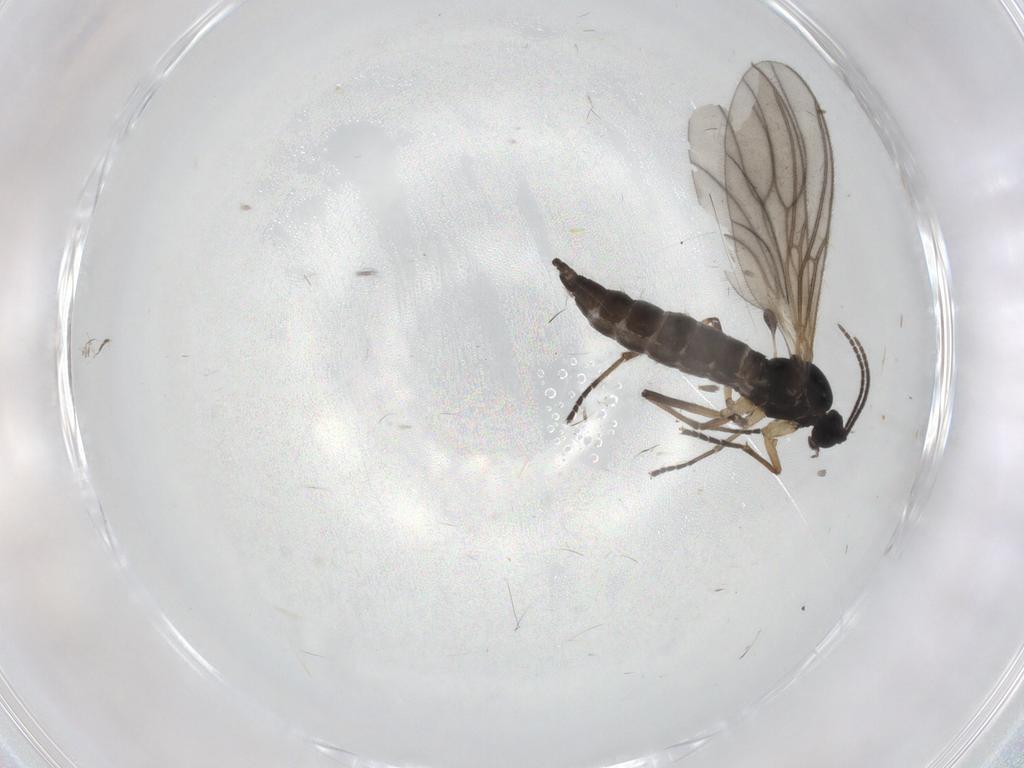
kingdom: Animalia
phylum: Arthropoda
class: Insecta
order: Diptera
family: Sciaridae
